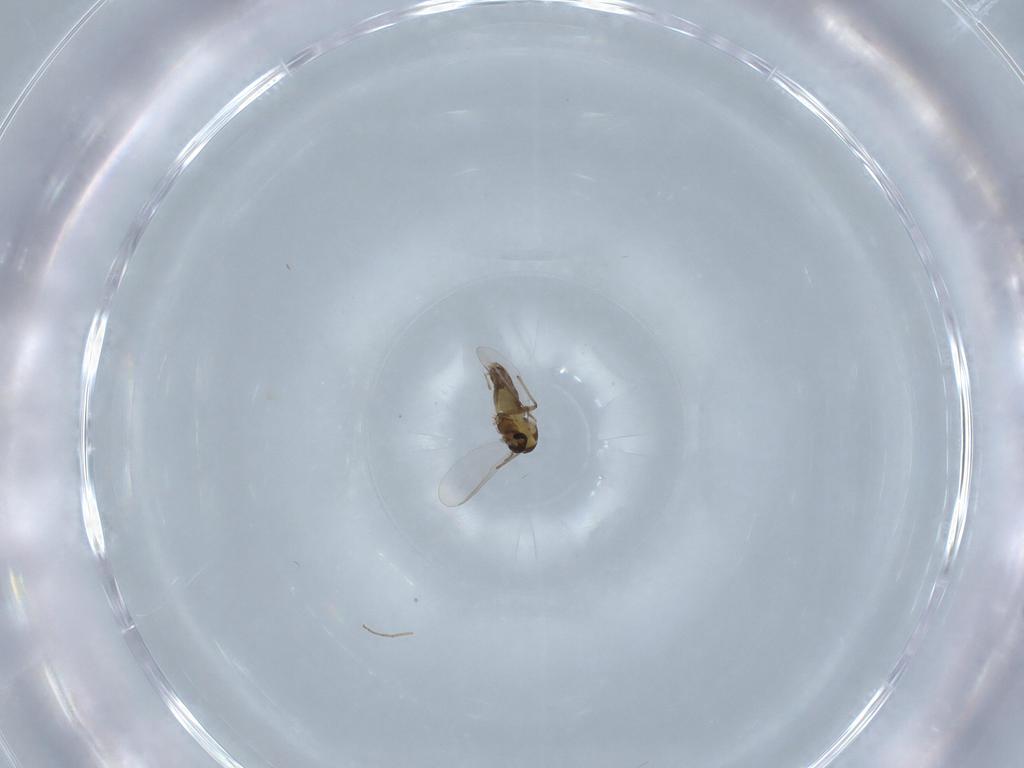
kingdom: Animalia
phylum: Arthropoda
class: Insecta
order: Diptera
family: Chironomidae
